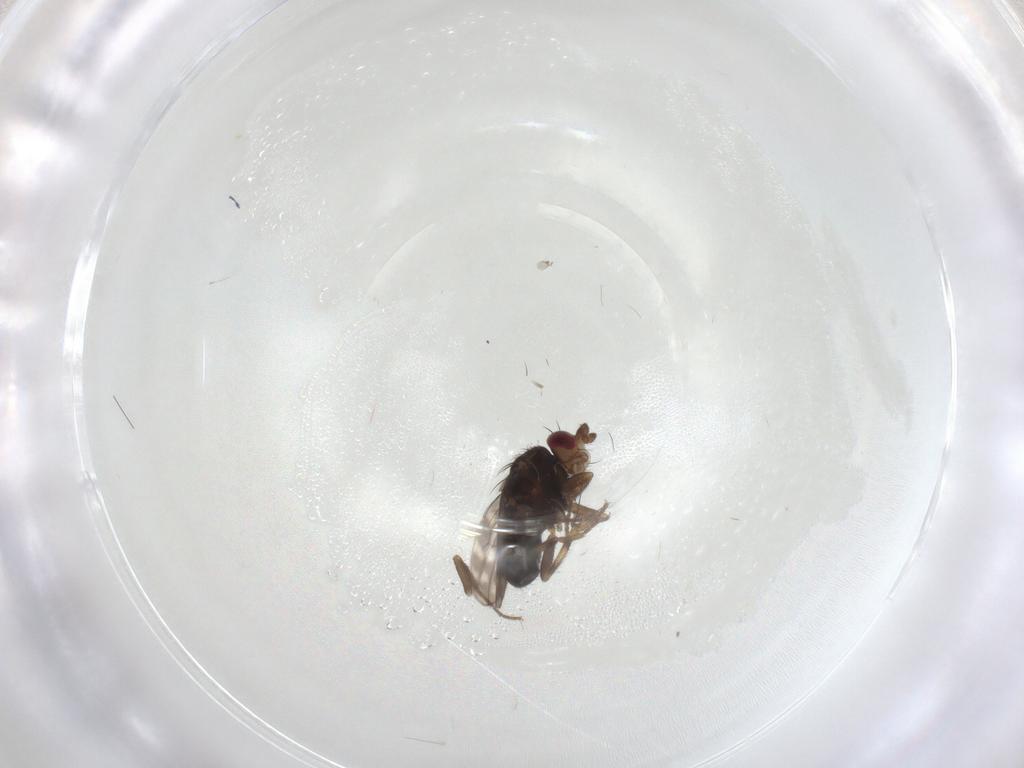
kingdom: Animalia
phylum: Arthropoda
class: Insecta
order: Diptera
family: Sphaeroceridae
